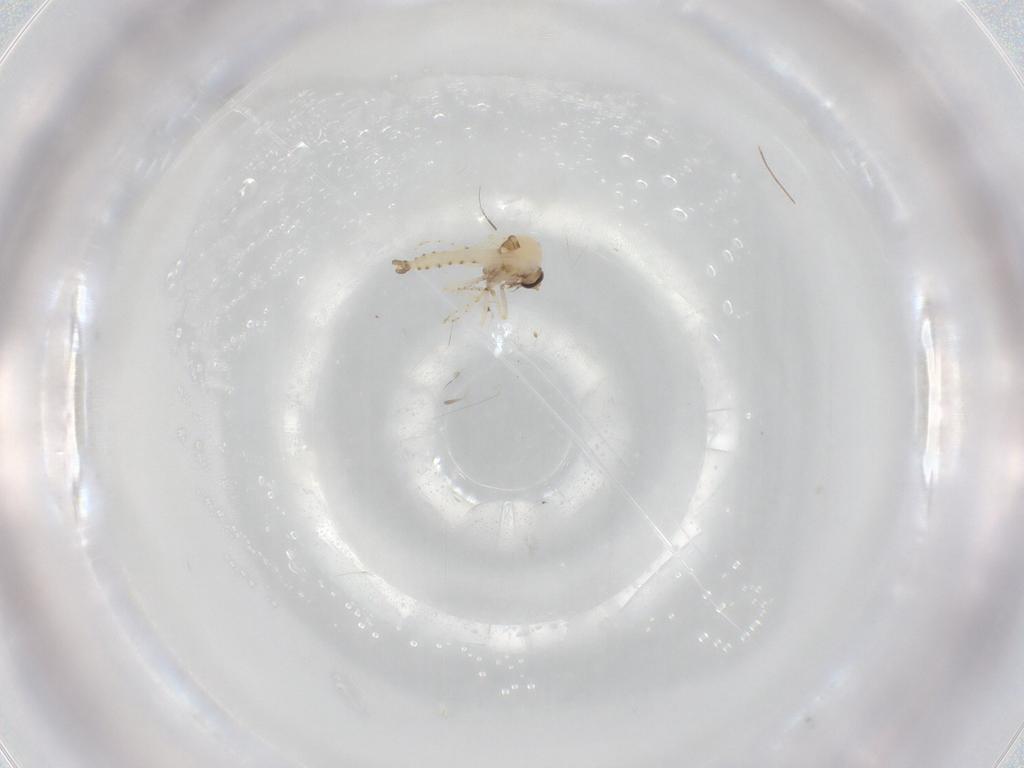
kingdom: Animalia
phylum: Arthropoda
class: Insecta
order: Diptera
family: Ceratopogonidae
